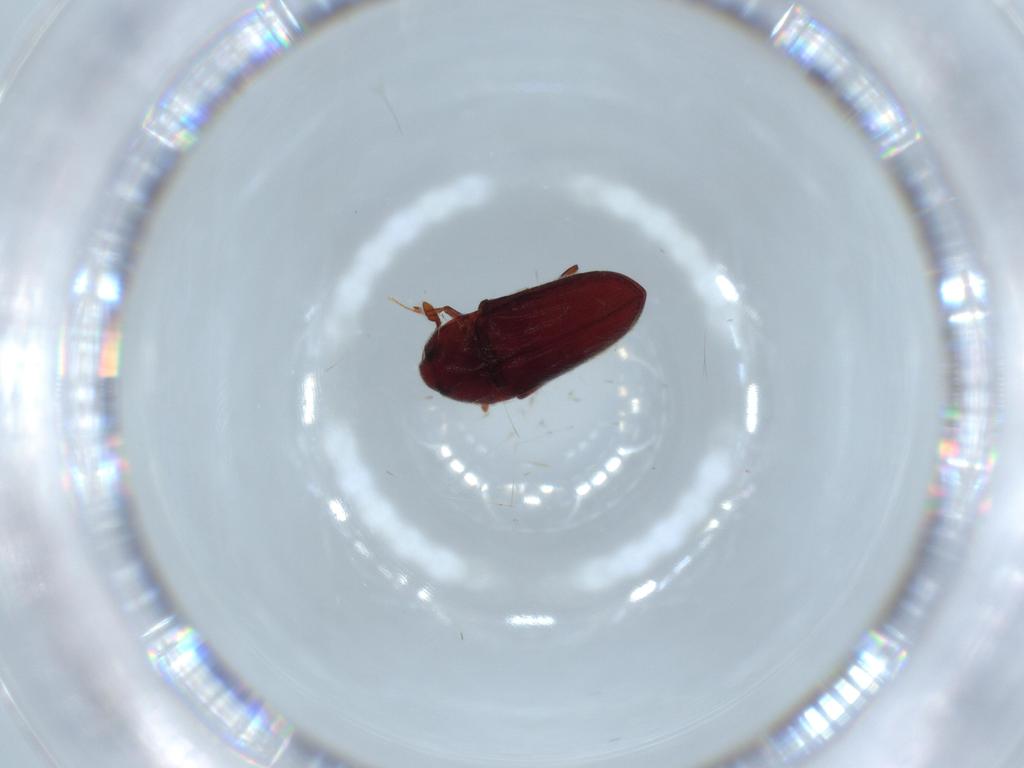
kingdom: Animalia
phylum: Arthropoda
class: Insecta
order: Coleoptera
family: Throscidae
